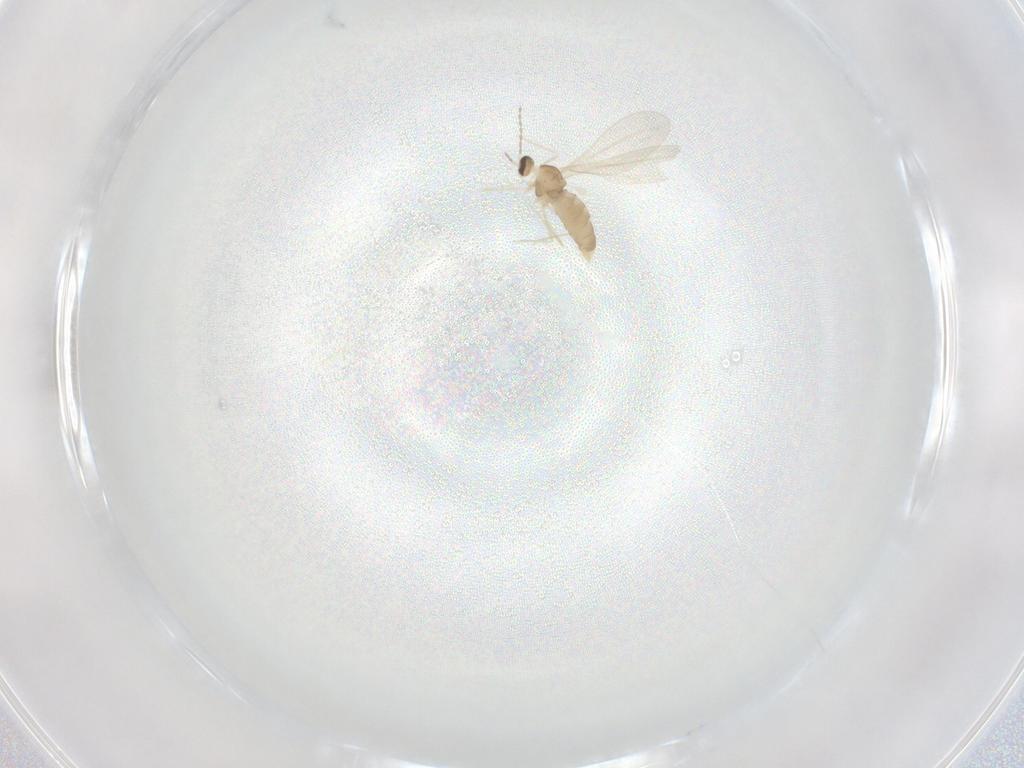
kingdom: Animalia
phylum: Arthropoda
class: Insecta
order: Diptera
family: Cecidomyiidae
